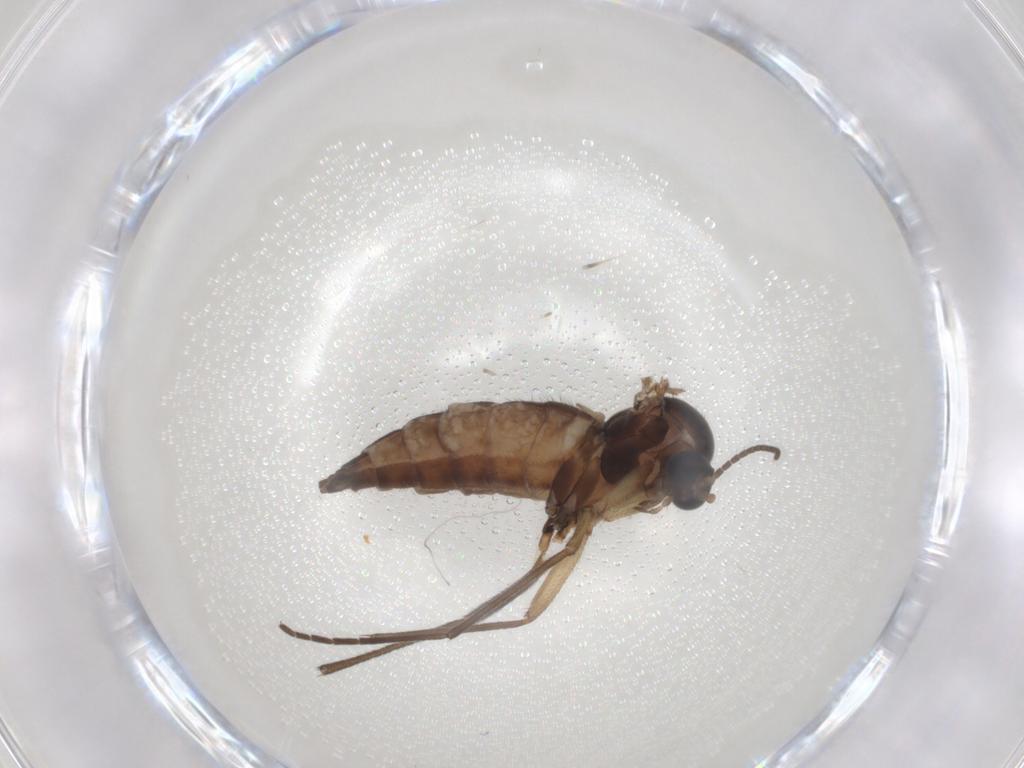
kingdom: Animalia
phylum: Arthropoda
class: Insecta
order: Diptera
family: Sciaridae
